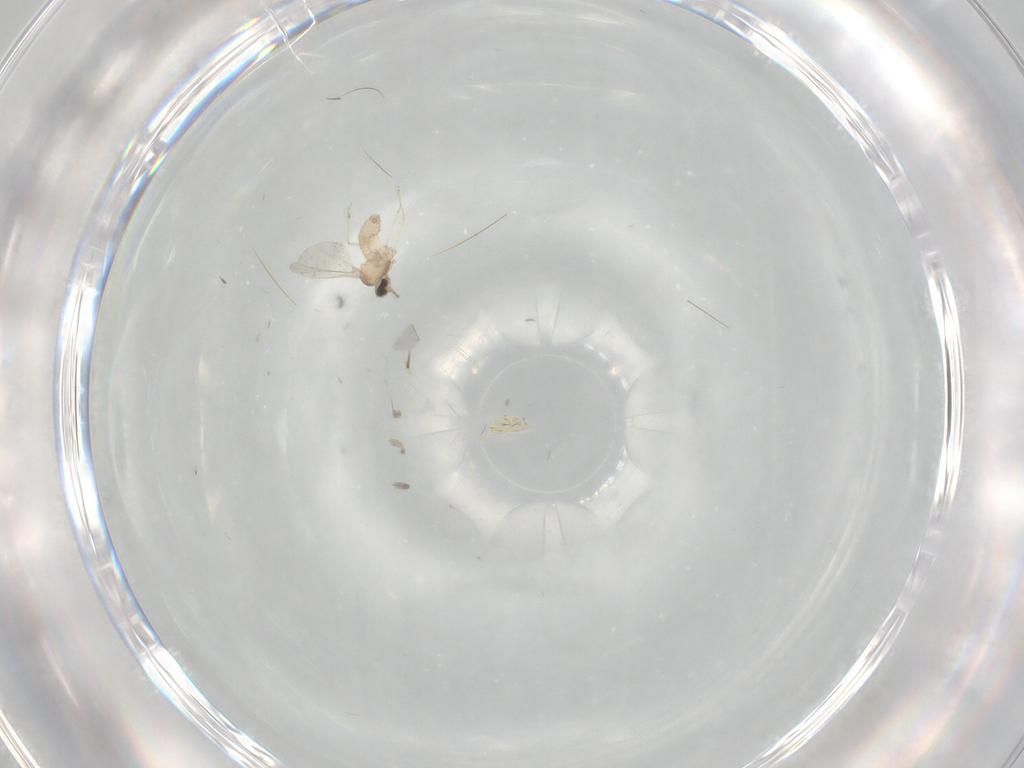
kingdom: Animalia
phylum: Arthropoda
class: Insecta
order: Diptera
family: Cecidomyiidae
